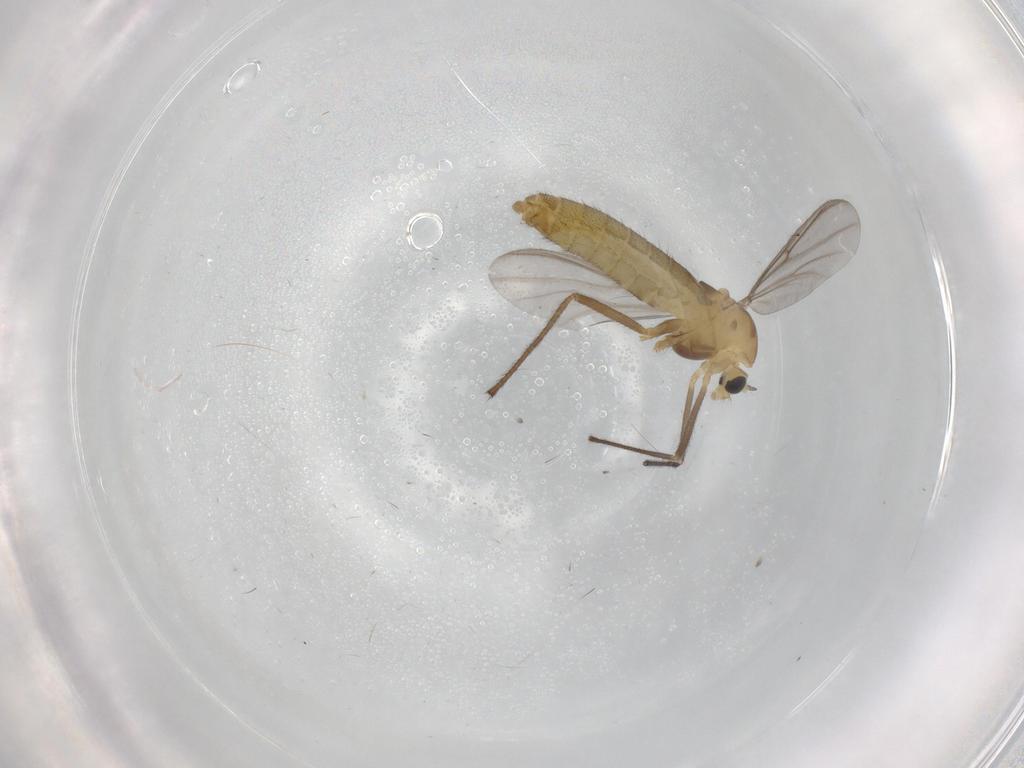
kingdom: Animalia
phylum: Arthropoda
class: Insecta
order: Diptera
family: Chironomidae
